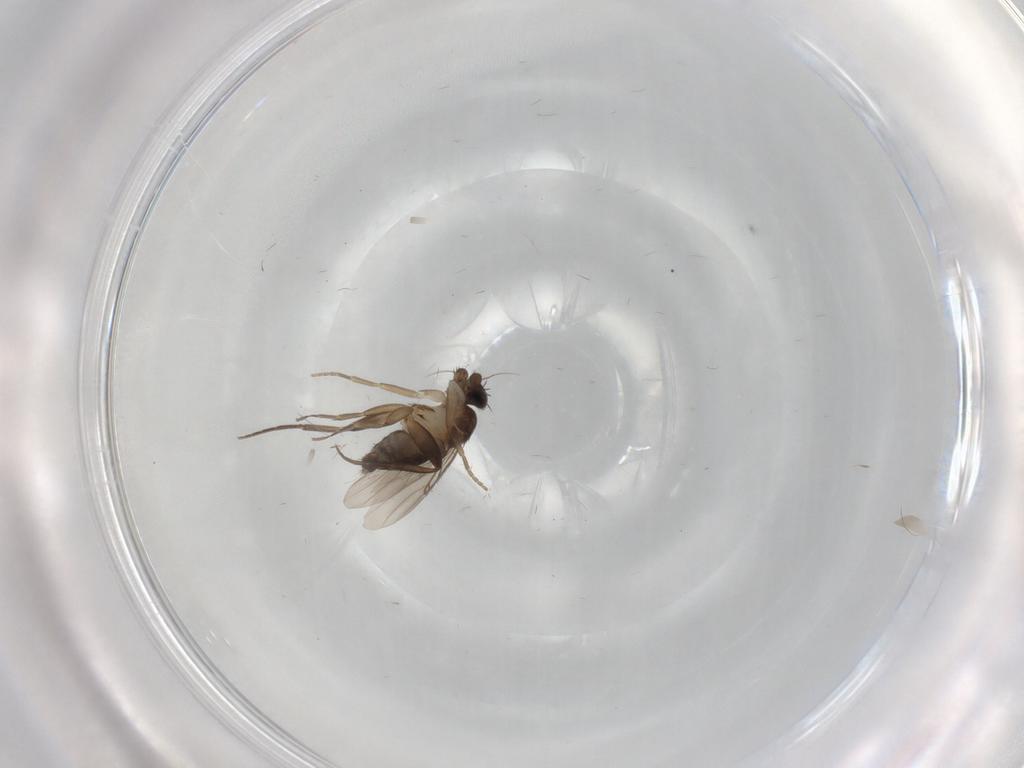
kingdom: Animalia
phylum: Arthropoda
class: Insecta
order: Diptera
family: Phoridae
